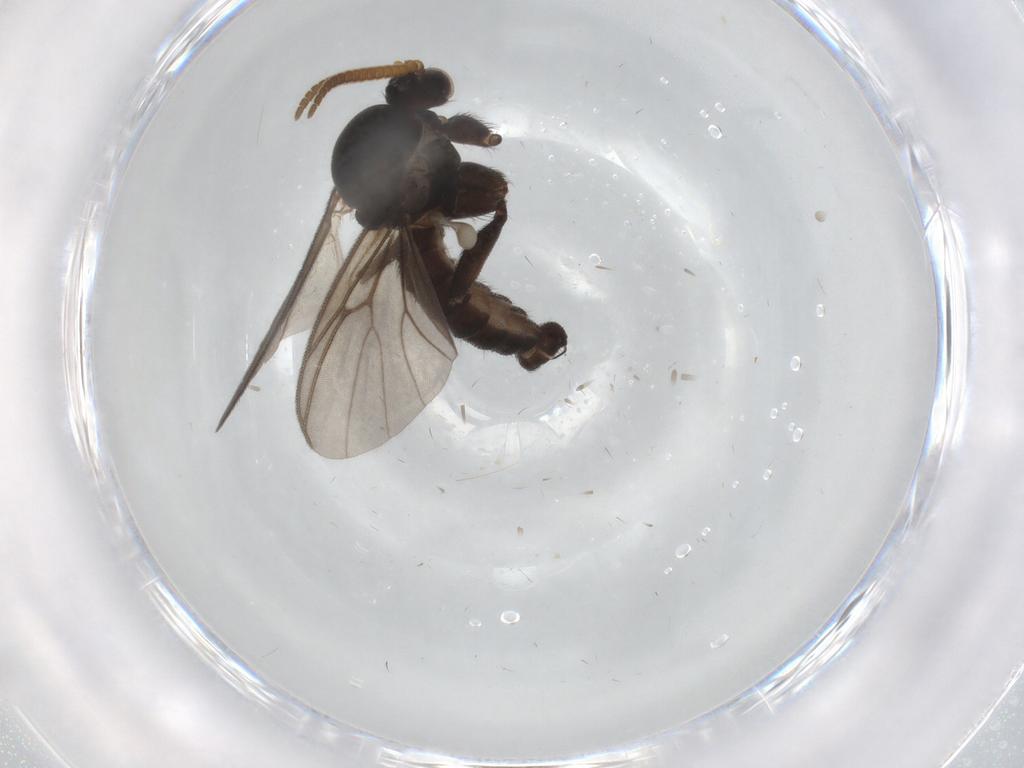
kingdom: Animalia
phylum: Arthropoda
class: Insecta
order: Diptera
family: Mycetophilidae
